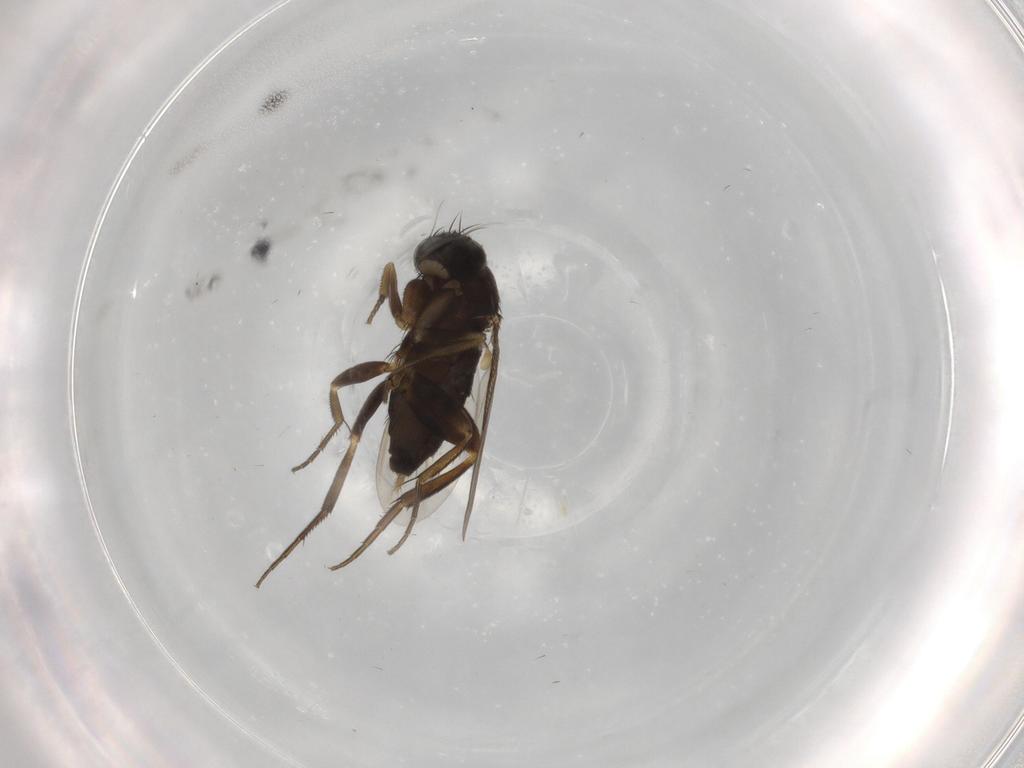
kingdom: Animalia
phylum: Arthropoda
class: Insecta
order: Diptera
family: Phoridae
